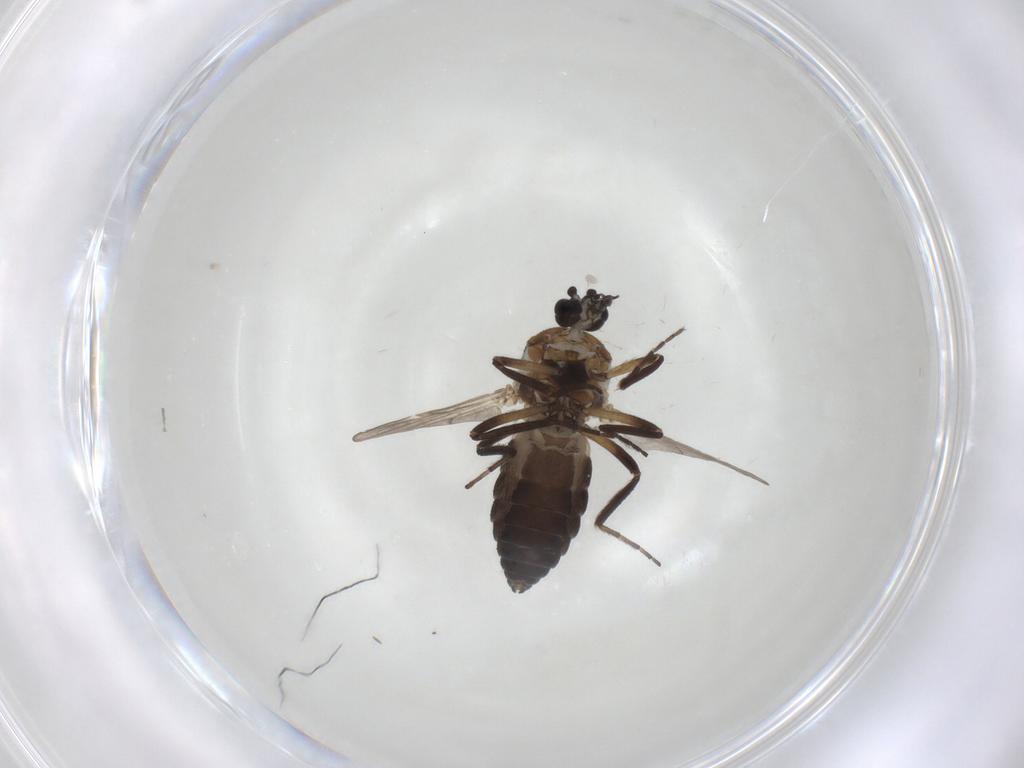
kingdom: Animalia
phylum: Arthropoda
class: Insecta
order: Diptera
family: Ceratopogonidae
